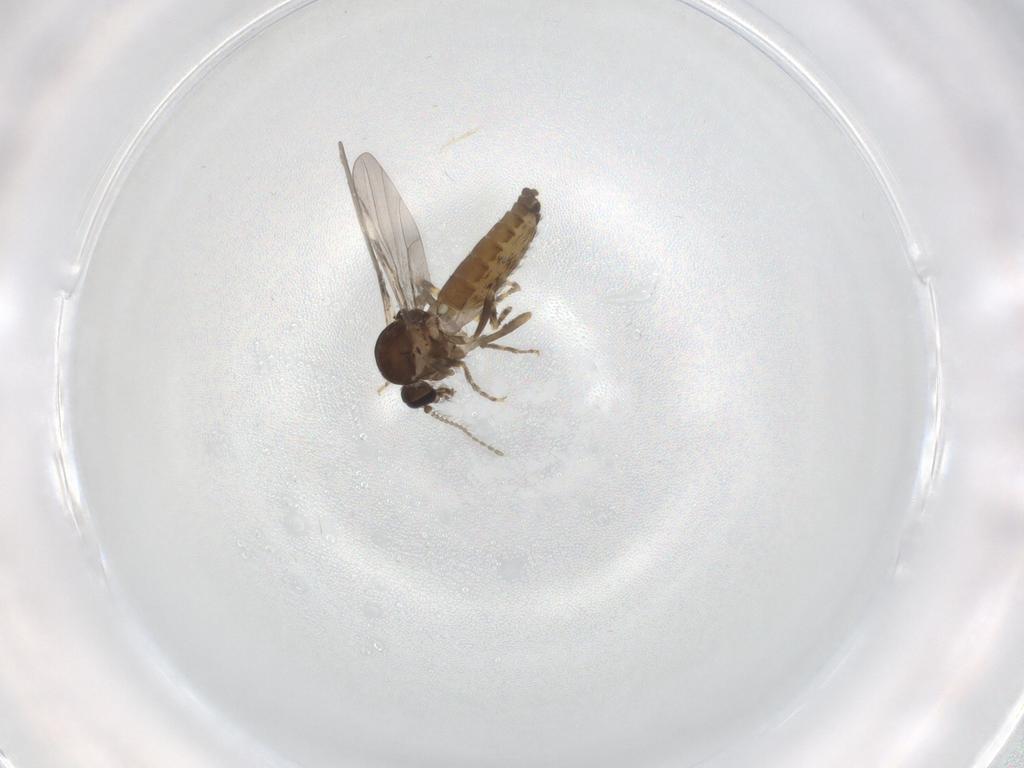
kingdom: Animalia
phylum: Arthropoda
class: Insecta
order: Diptera
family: Ceratopogonidae
